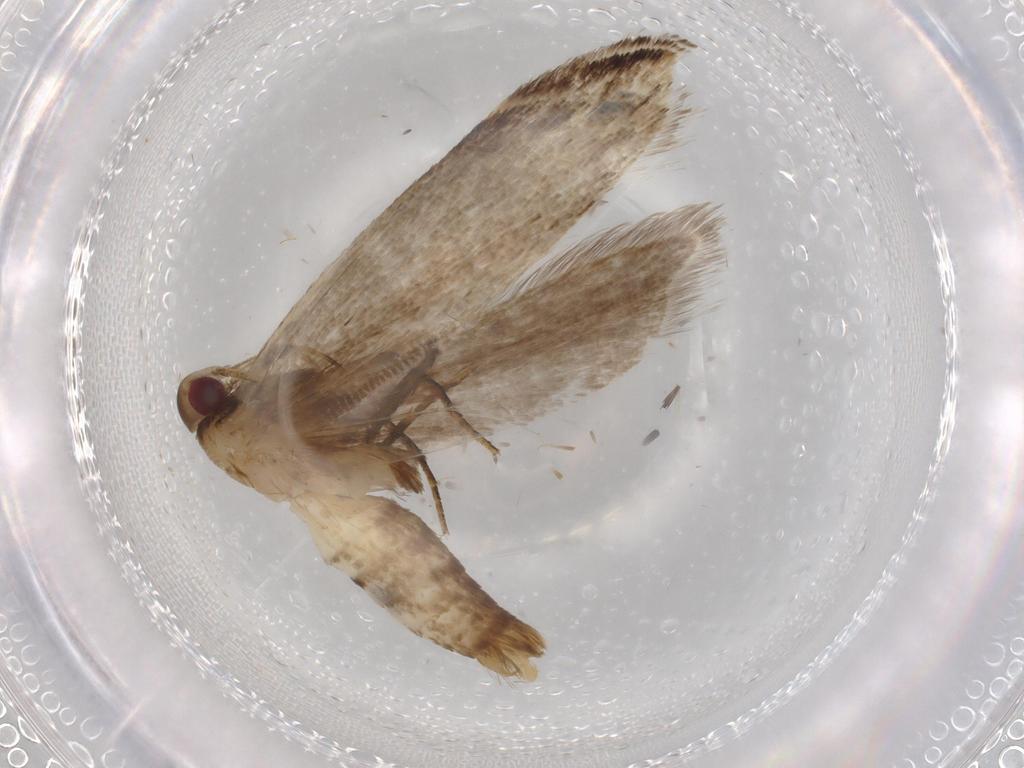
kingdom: Animalia
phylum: Arthropoda
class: Insecta
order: Lepidoptera
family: Gelechiidae
